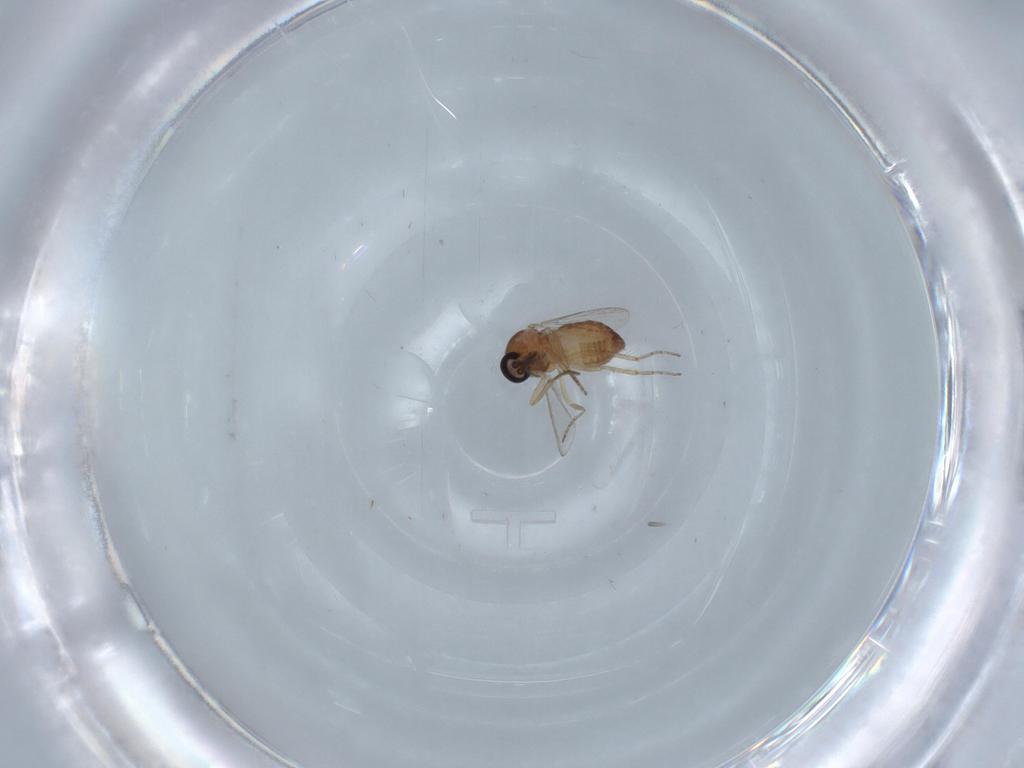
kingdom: Animalia
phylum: Arthropoda
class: Insecta
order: Diptera
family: Ceratopogonidae
